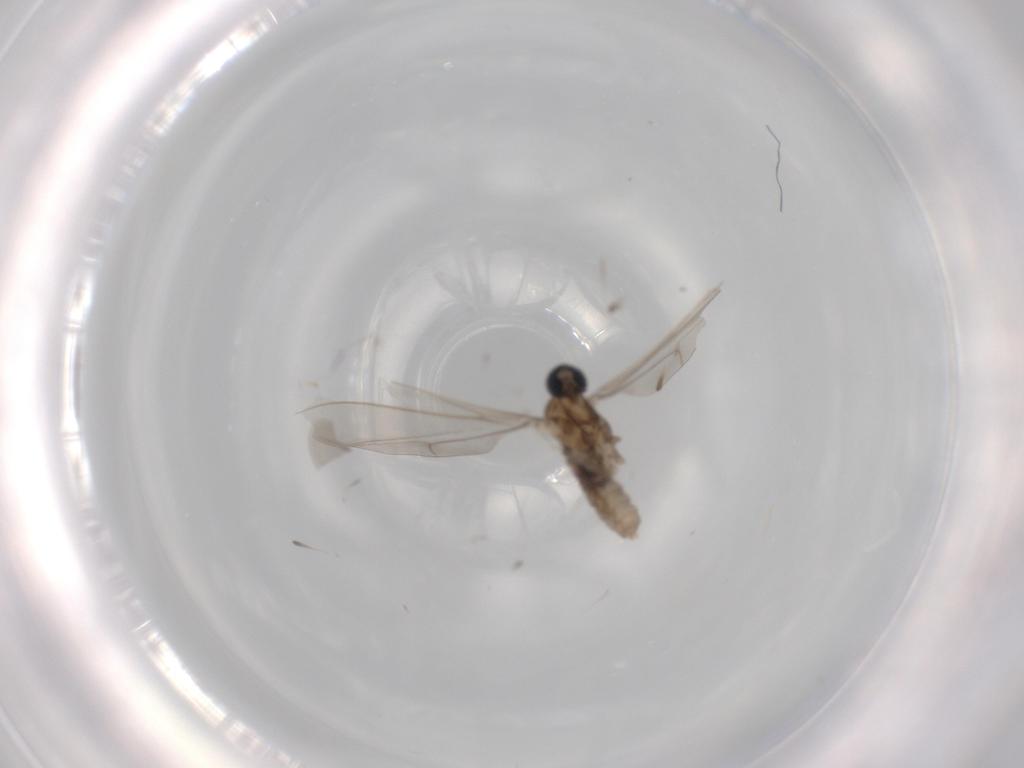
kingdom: Animalia
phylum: Arthropoda
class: Insecta
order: Diptera
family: Cecidomyiidae
